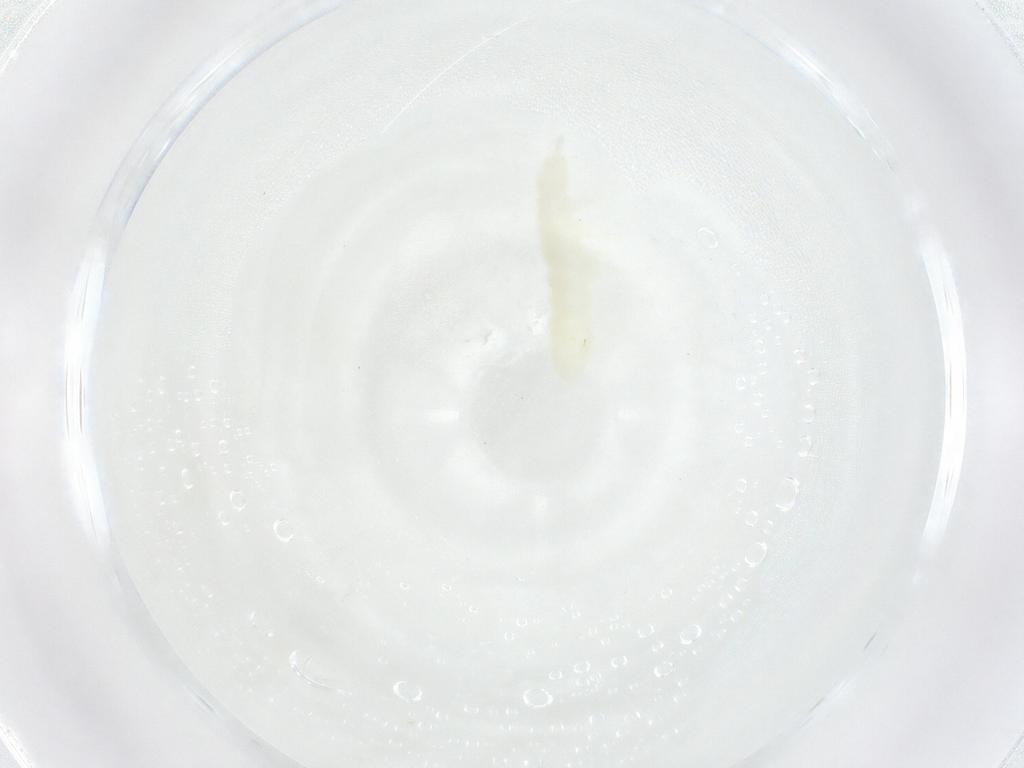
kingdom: Animalia
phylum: Arthropoda
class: Collembola
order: Poduromorpha
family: Onychiuridae
